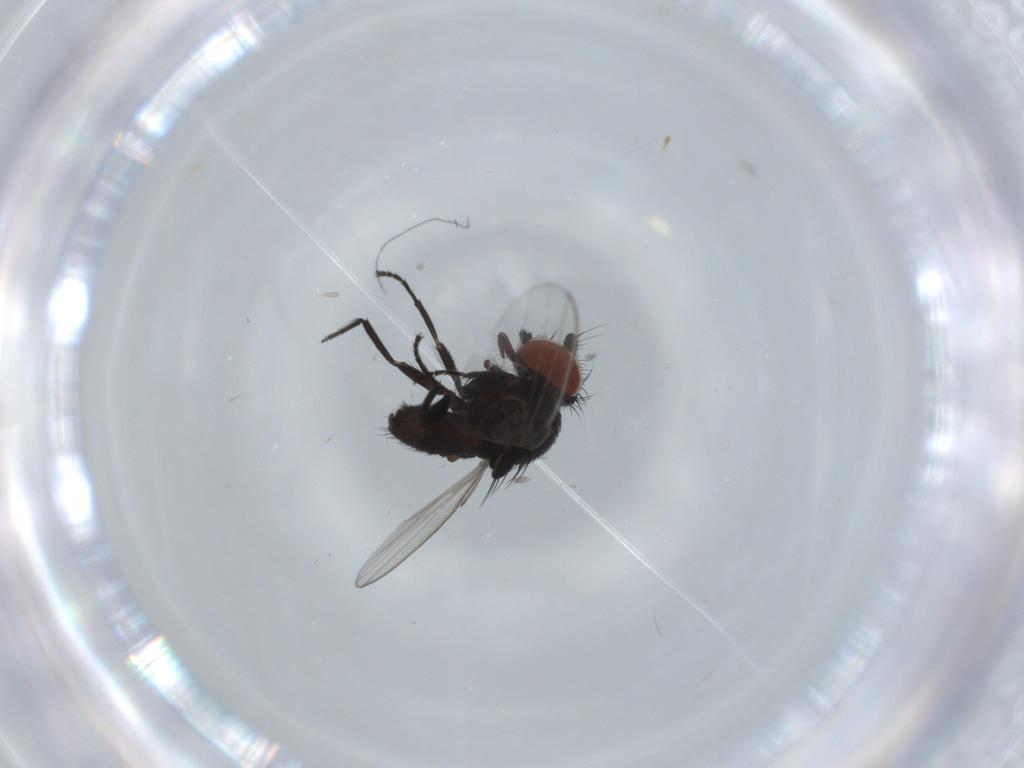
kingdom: Animalia
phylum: Arthropoda
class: Insecta
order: Diptera
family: Milichiidae
